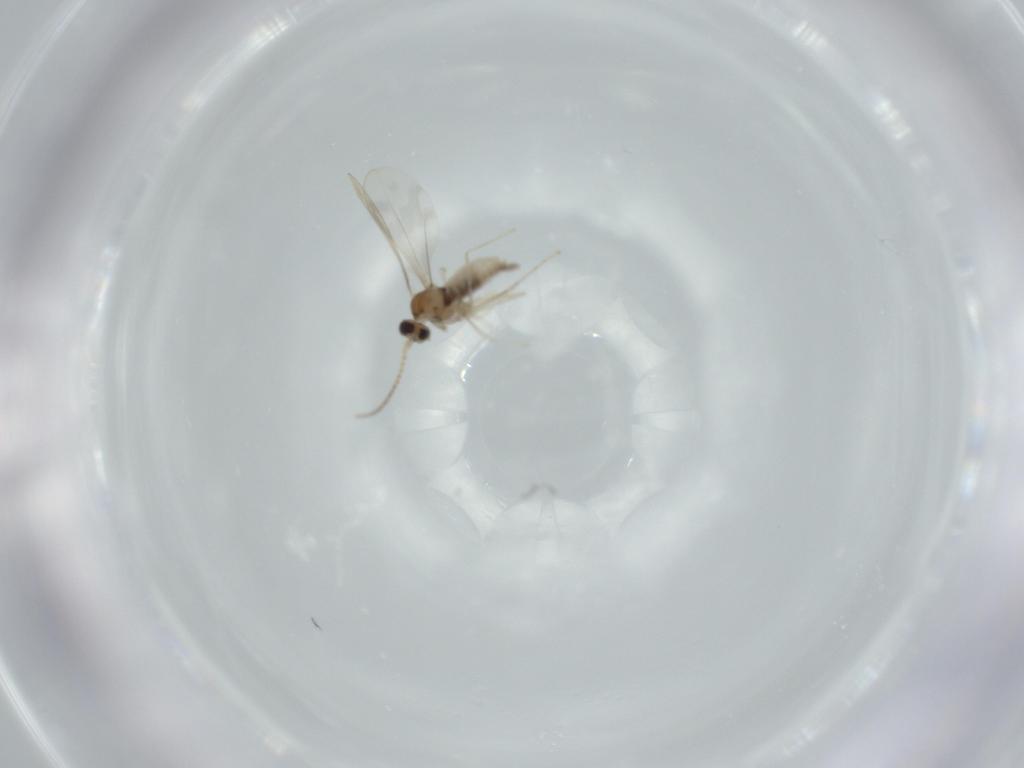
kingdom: Animalia
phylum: Arthropoda
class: Insecta
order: Diptera
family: Cecidomyiidae
